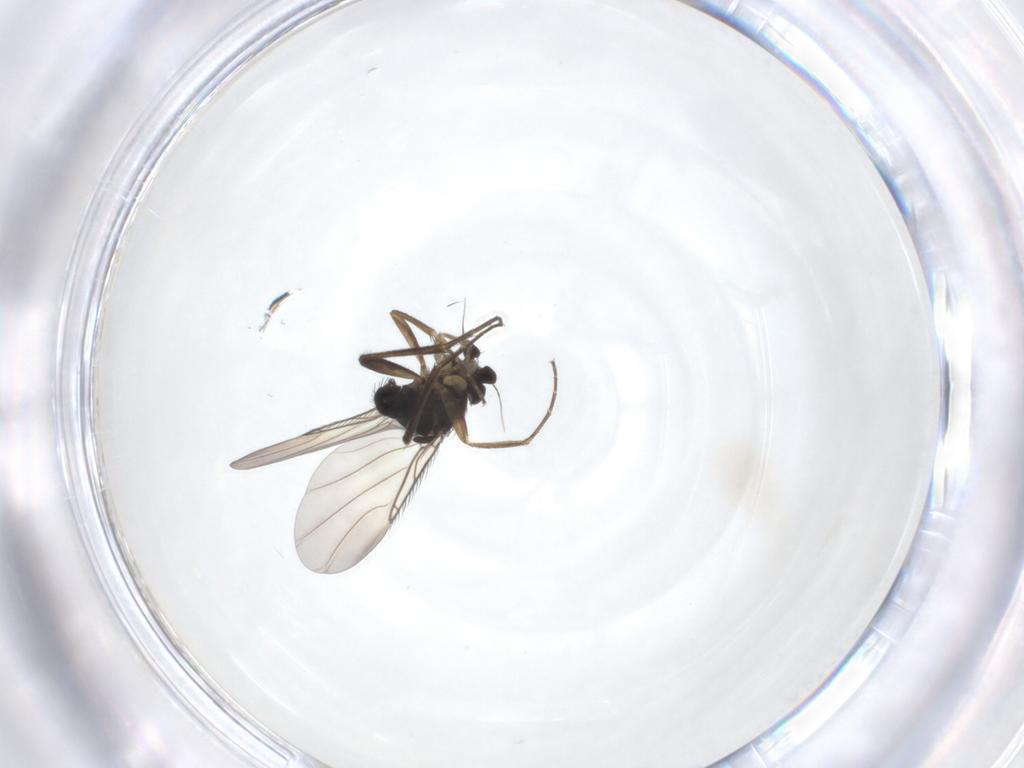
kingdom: Animalia
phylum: Arthropoda
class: Insecta
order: Diptera
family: Phoridae
